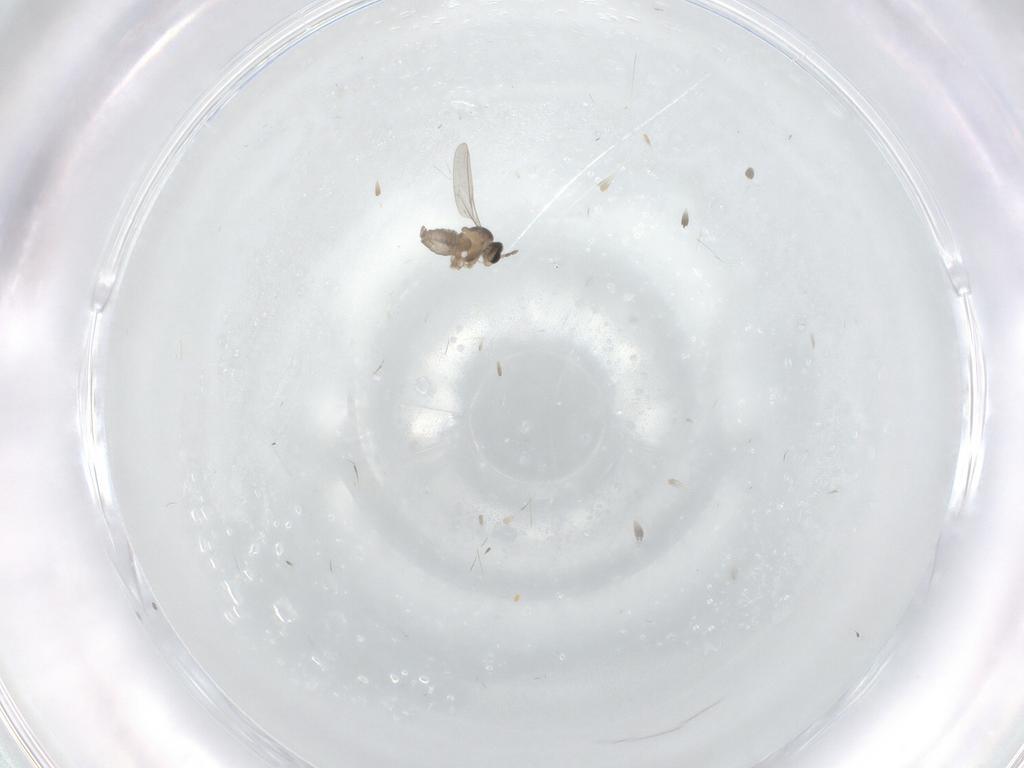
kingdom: Animalia
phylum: Arthropoda
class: Insecta
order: Diptera
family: Cecidomyiidae
